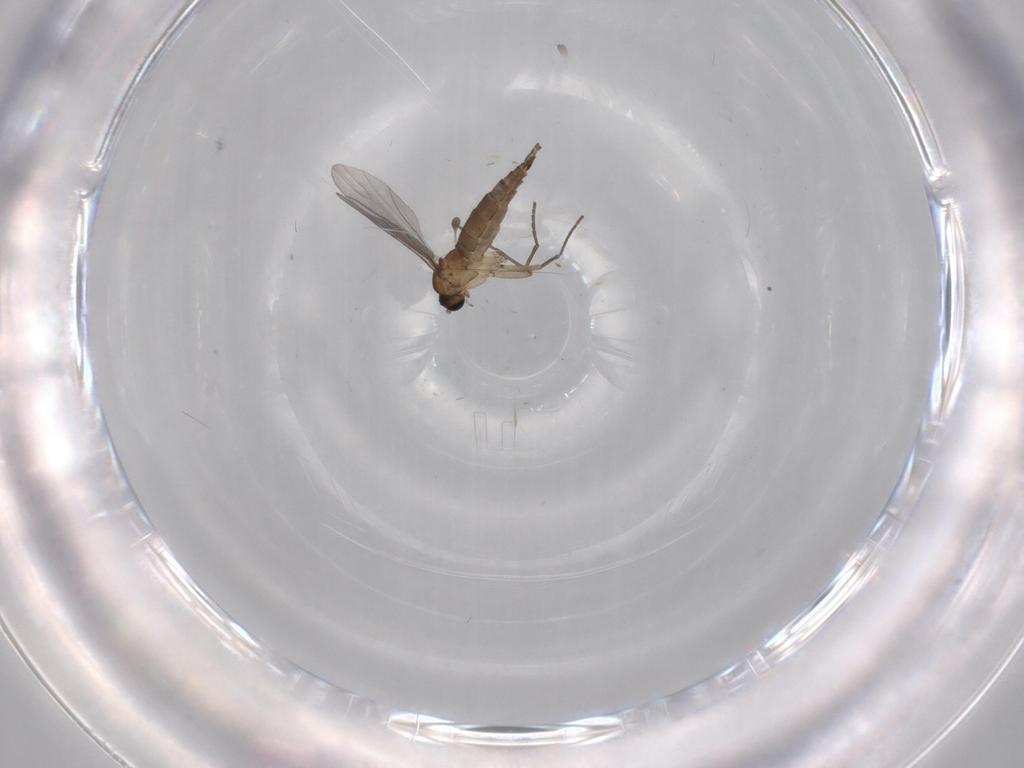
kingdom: Animalia
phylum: Arthropoda
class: Insecta
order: Diptera
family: Sciaridae
